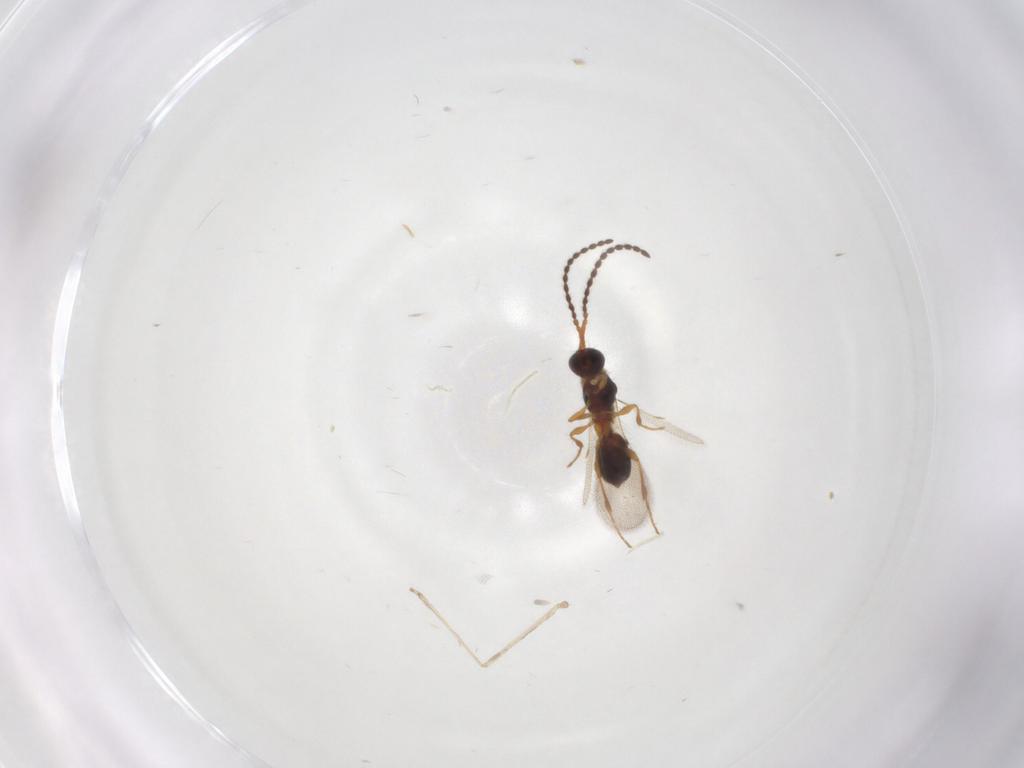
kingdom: Animalia
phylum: Arthropoda
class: Insecta
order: Hymenoptera
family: Diapriidae
